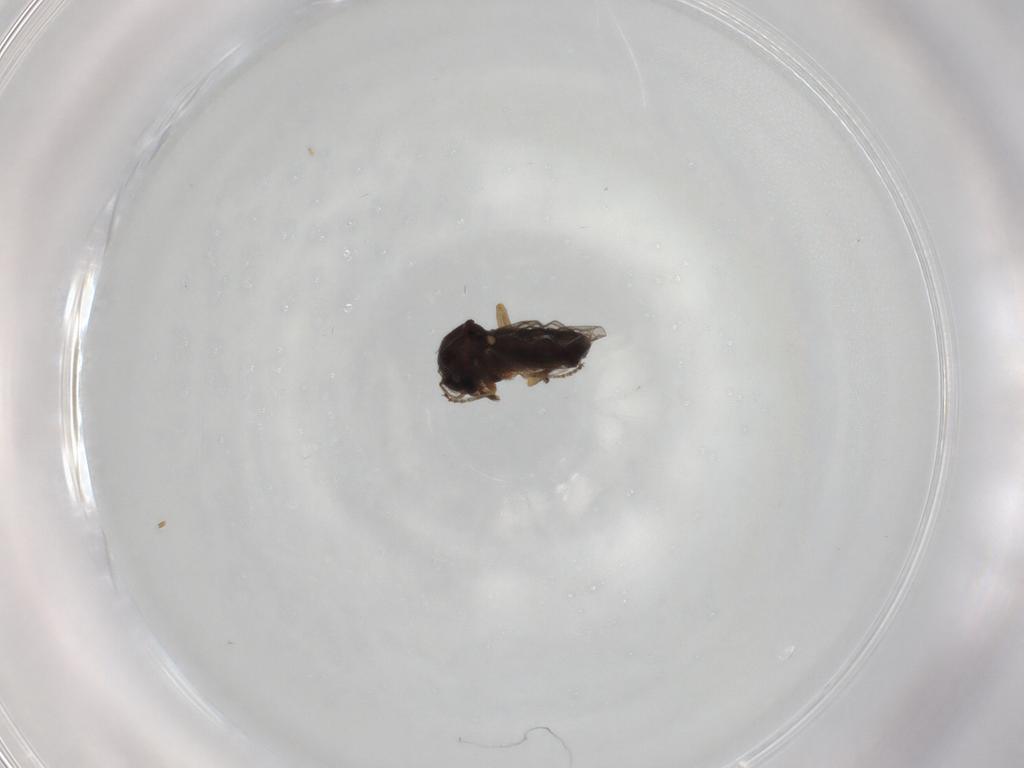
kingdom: Animalia
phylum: Arthropoda
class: Insecta
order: Diptera
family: Ceratopogonidae
